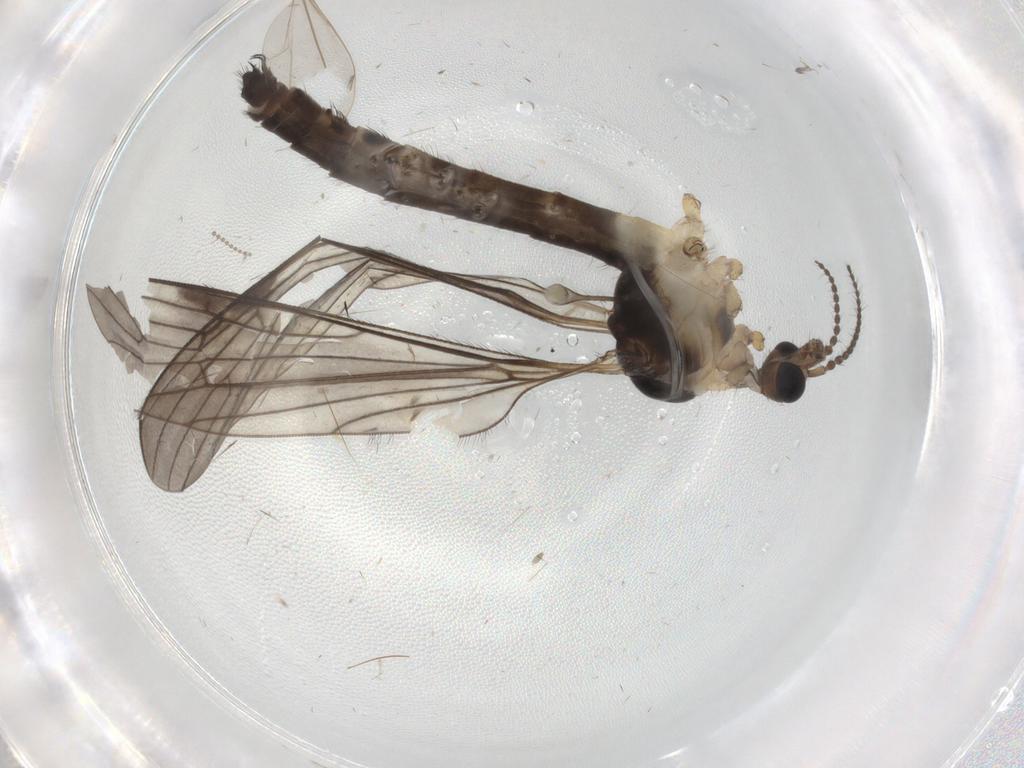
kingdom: Animalia
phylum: Arthropoda
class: Insecta
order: Diptera
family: Limoniidae
